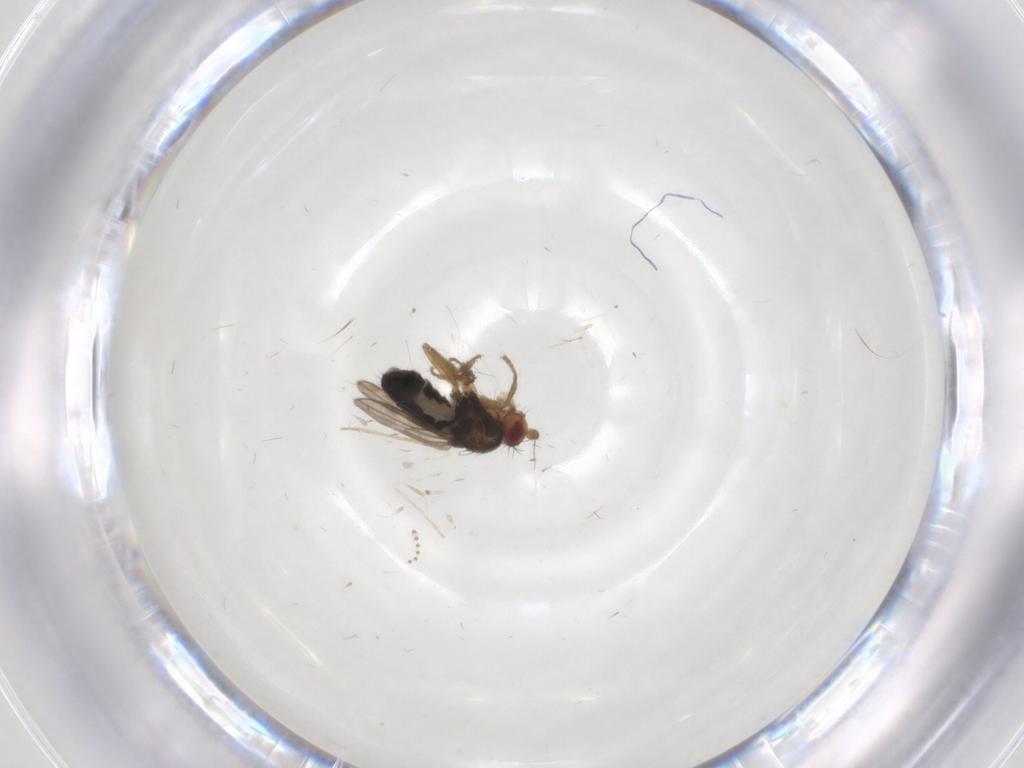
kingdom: Animalia
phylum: Arthropoda
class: Insecta
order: Diptera
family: Sphaeroceridae
